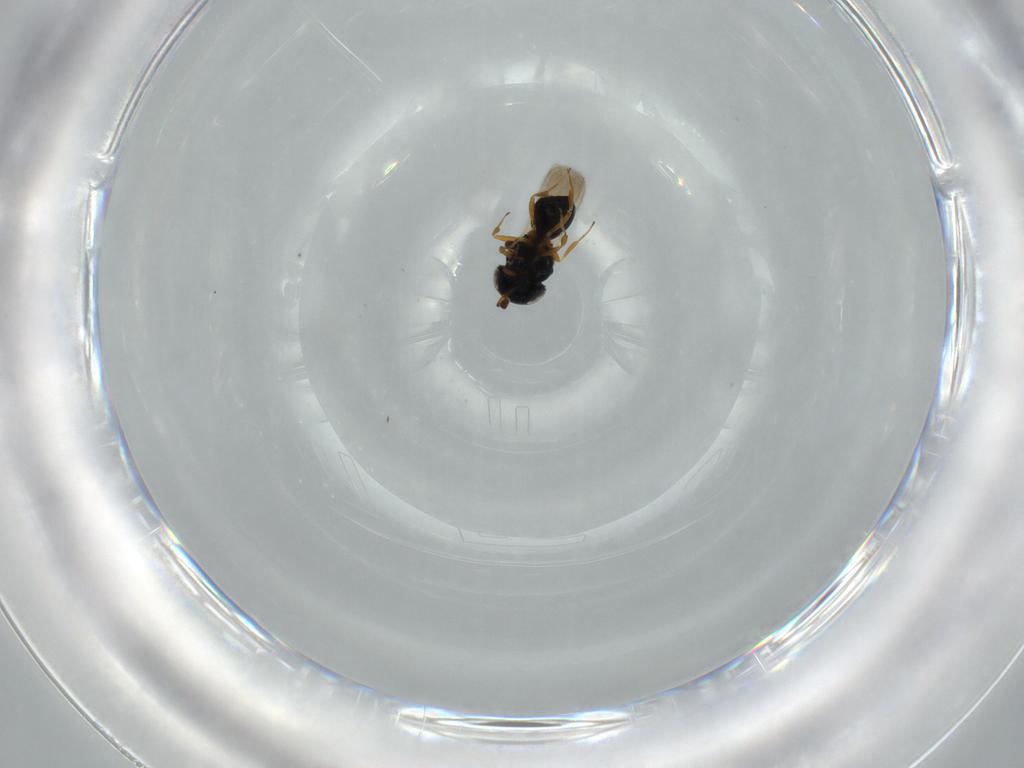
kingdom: Animalia
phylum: Arthropoda
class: Insecta
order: Hymenoptera
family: Scelionidae
